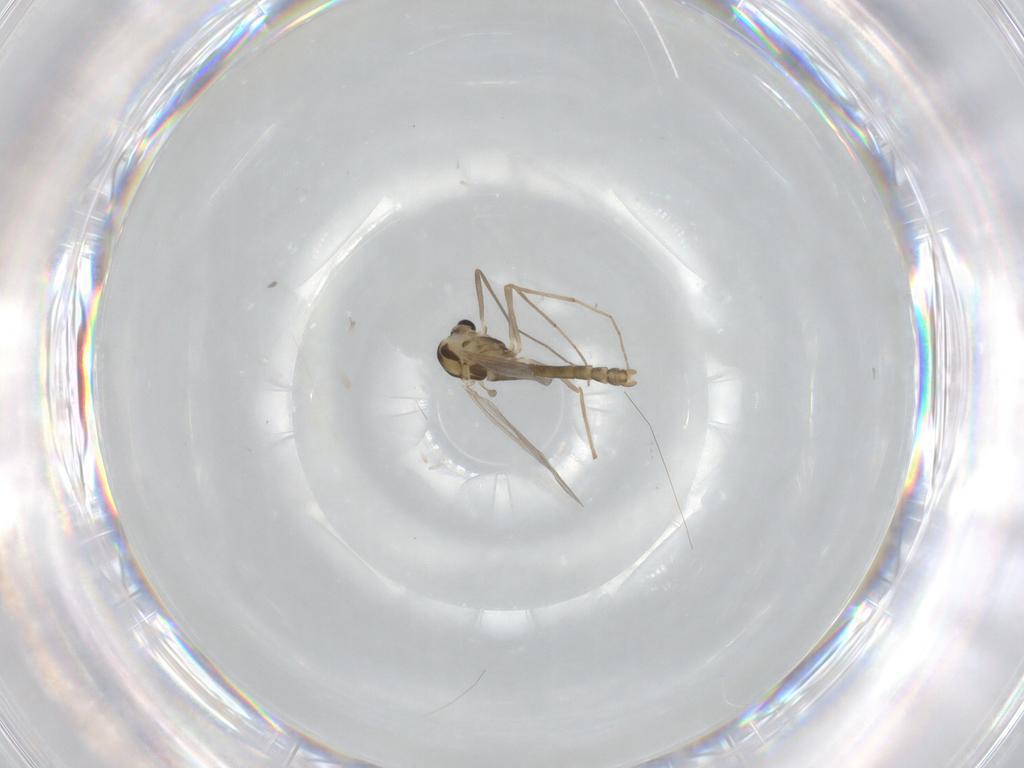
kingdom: Animalia
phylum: Arthropoda
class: Insecta
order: Diptera
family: Chironomidae
